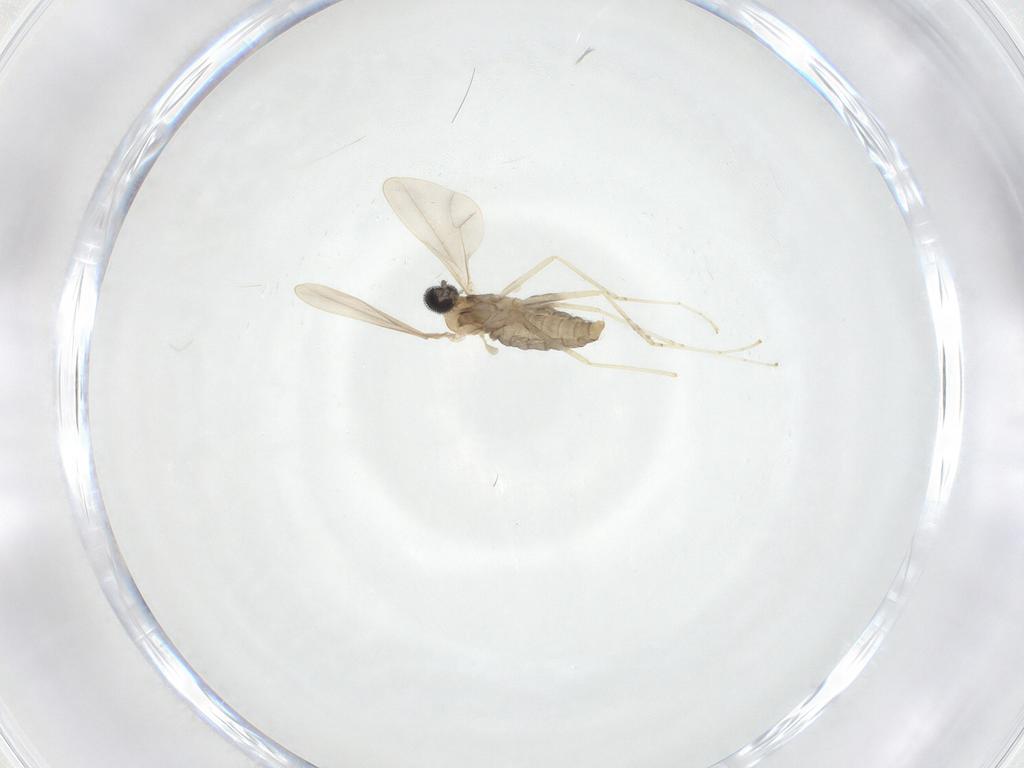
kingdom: Animalia
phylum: Arthropoda
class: Insecta
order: Diptera
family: Cecidomyiidae
